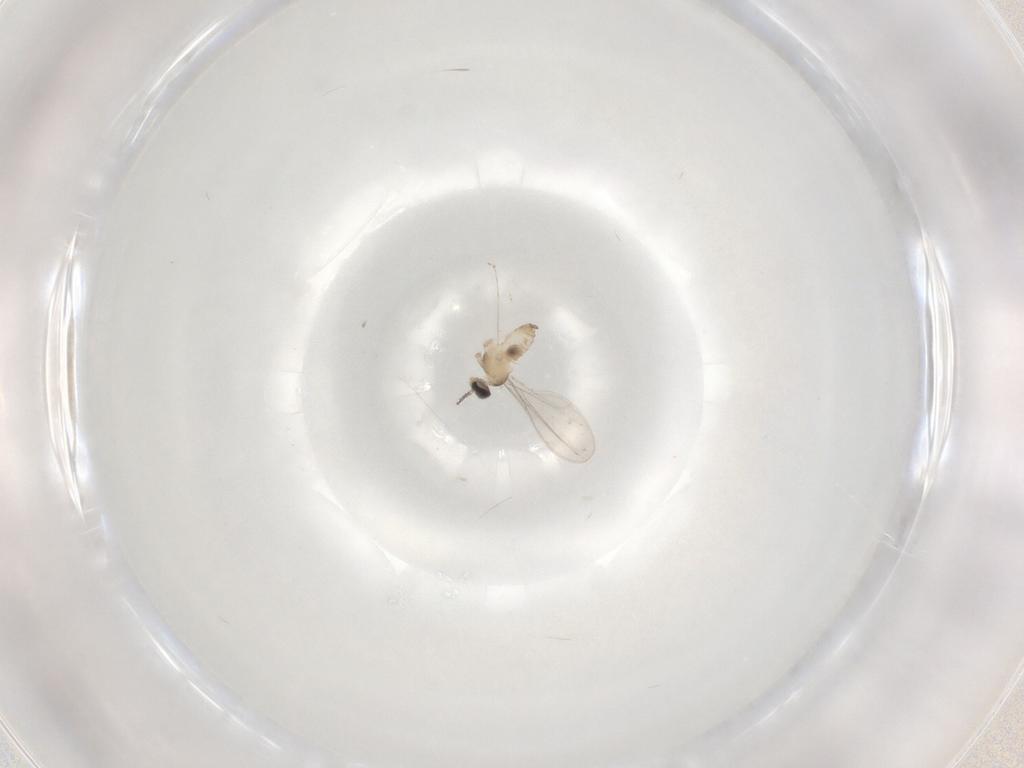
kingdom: Animalia
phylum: Arthropoda
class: Insecta
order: Diptera
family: Cecidomyiidae
